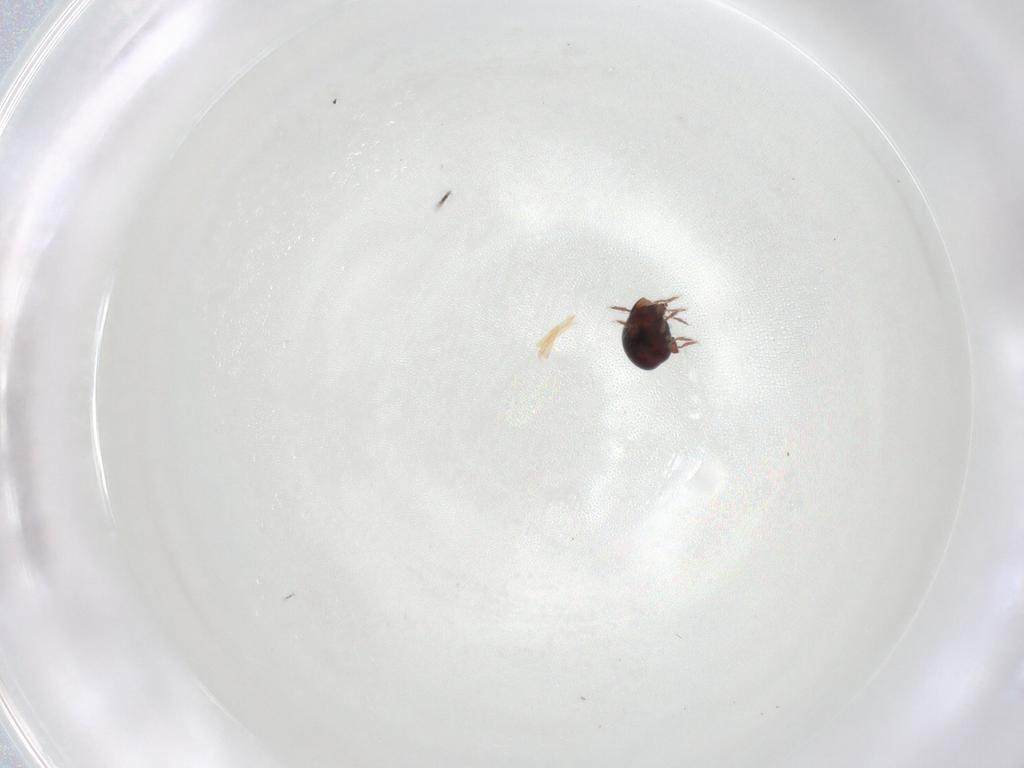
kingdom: Animalia
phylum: Arthropoda
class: Arachnida
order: Sarcoptiformes
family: Galumnidae
